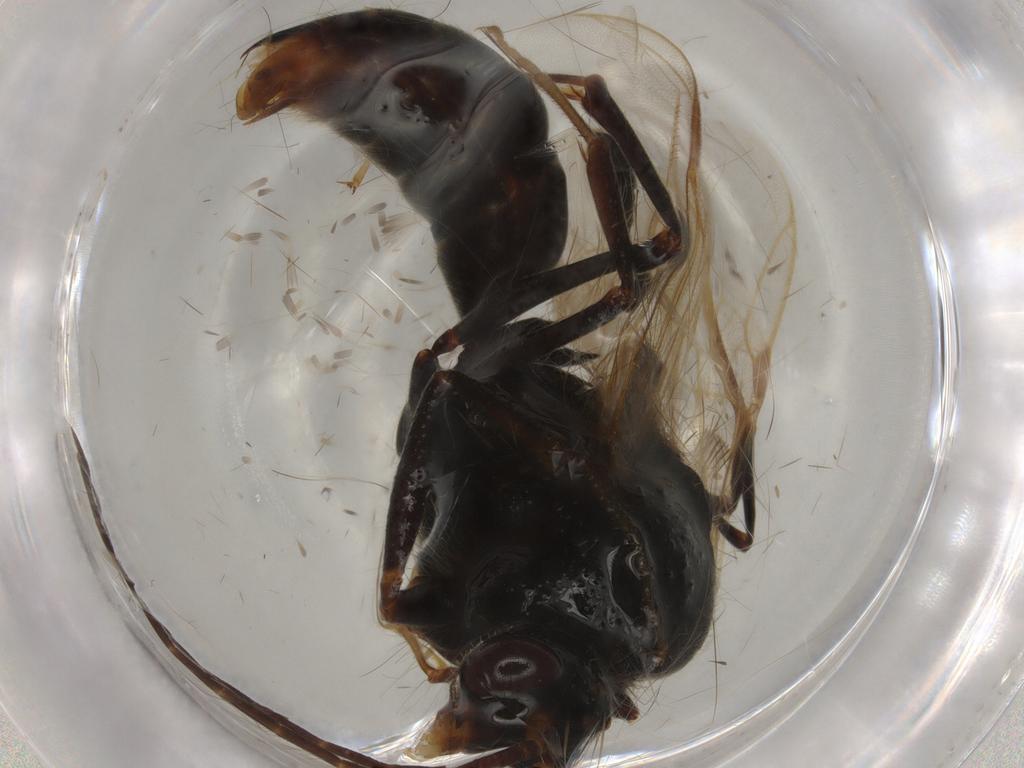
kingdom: Animalia
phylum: Arthropoda
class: Insecta
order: Hymenoptera
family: Formicidae
